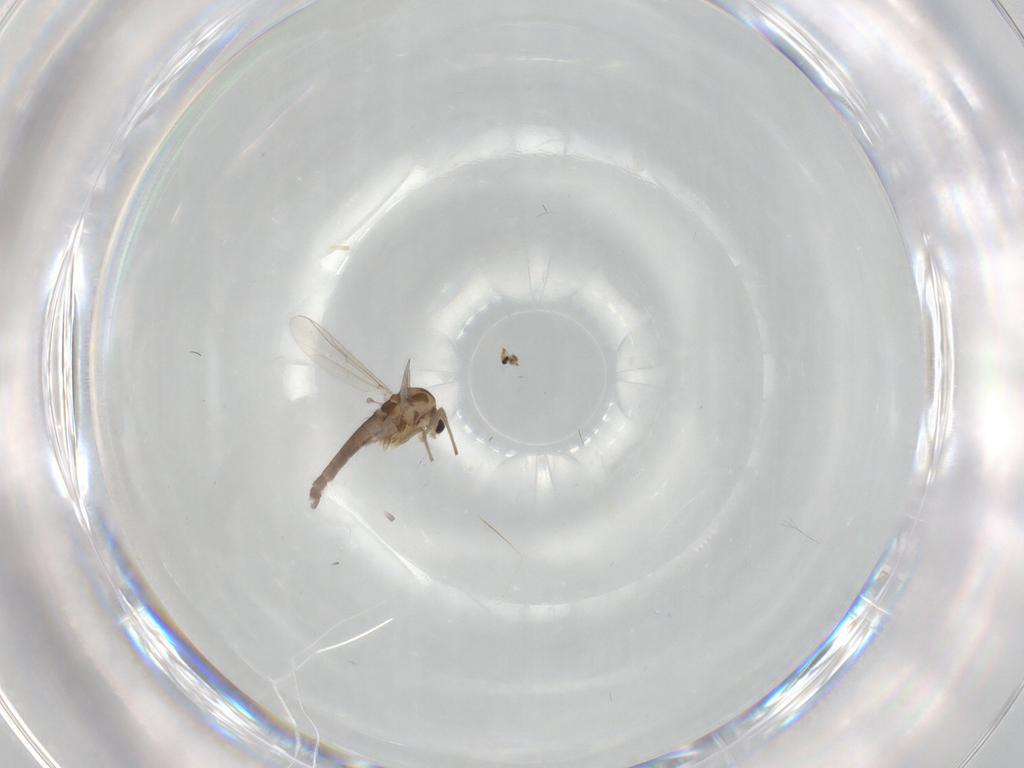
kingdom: Animalia
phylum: Arthropoda
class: Insecta
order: Diptera
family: Chironomidae
